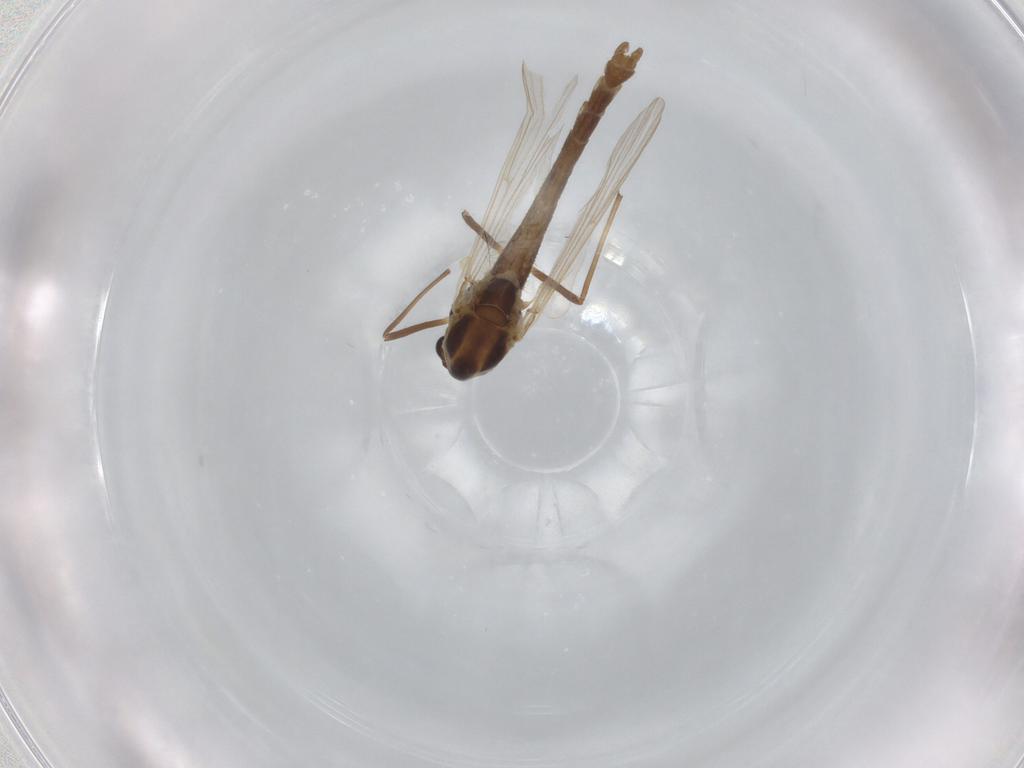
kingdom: Animalia
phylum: Arthropoda
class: Insecta
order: Diptera
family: Chironomidae
